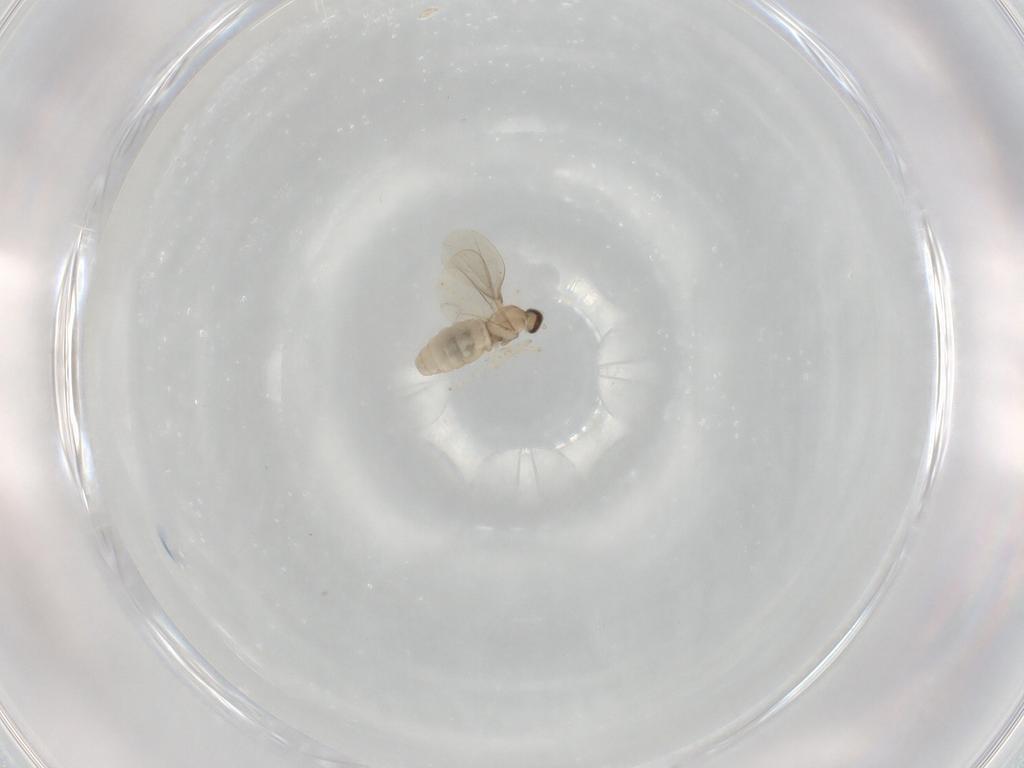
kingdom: Animalia
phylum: Arthropoda
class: Insecta
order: Diptera
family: Cecidomyiidae
